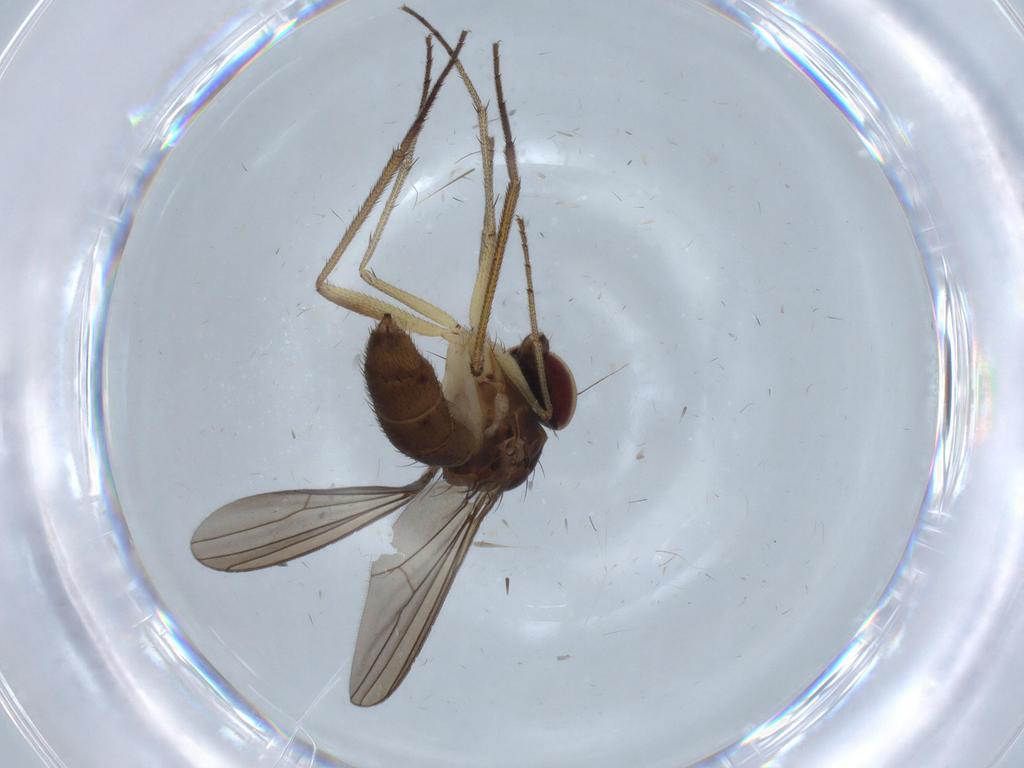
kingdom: Animalia
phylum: Arthropoda
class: Insecta
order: Diptera
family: Dolichopodidae
